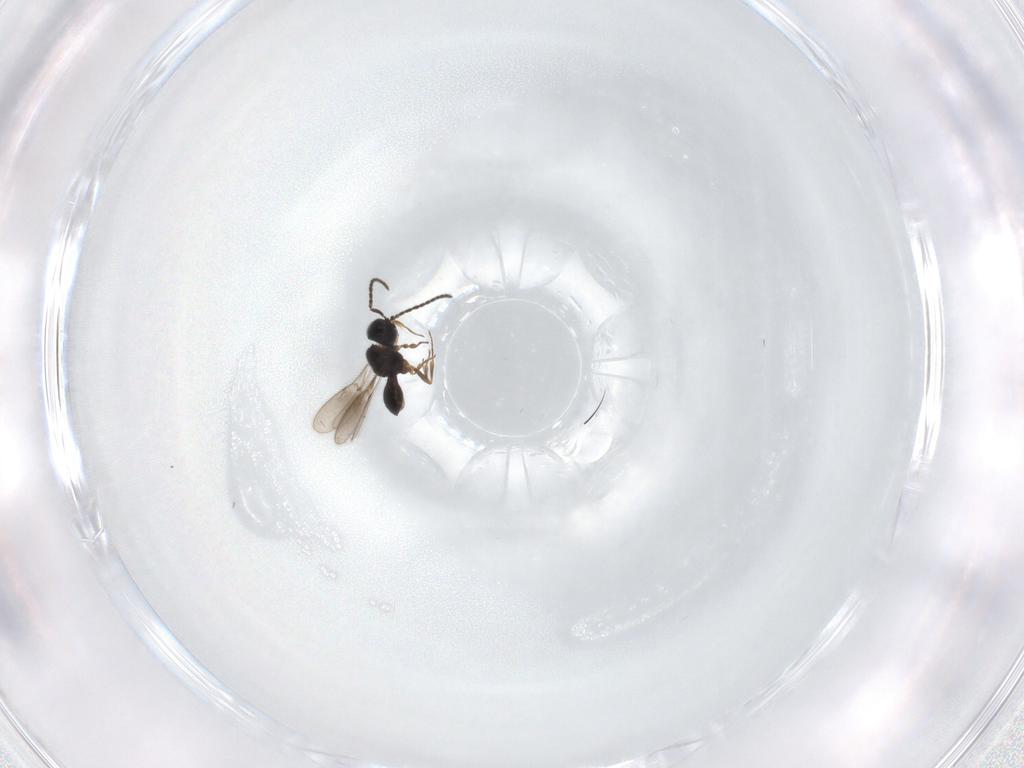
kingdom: Animalia
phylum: Arthropoda
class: Insecta
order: Hymenoptera
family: Scelionidae
